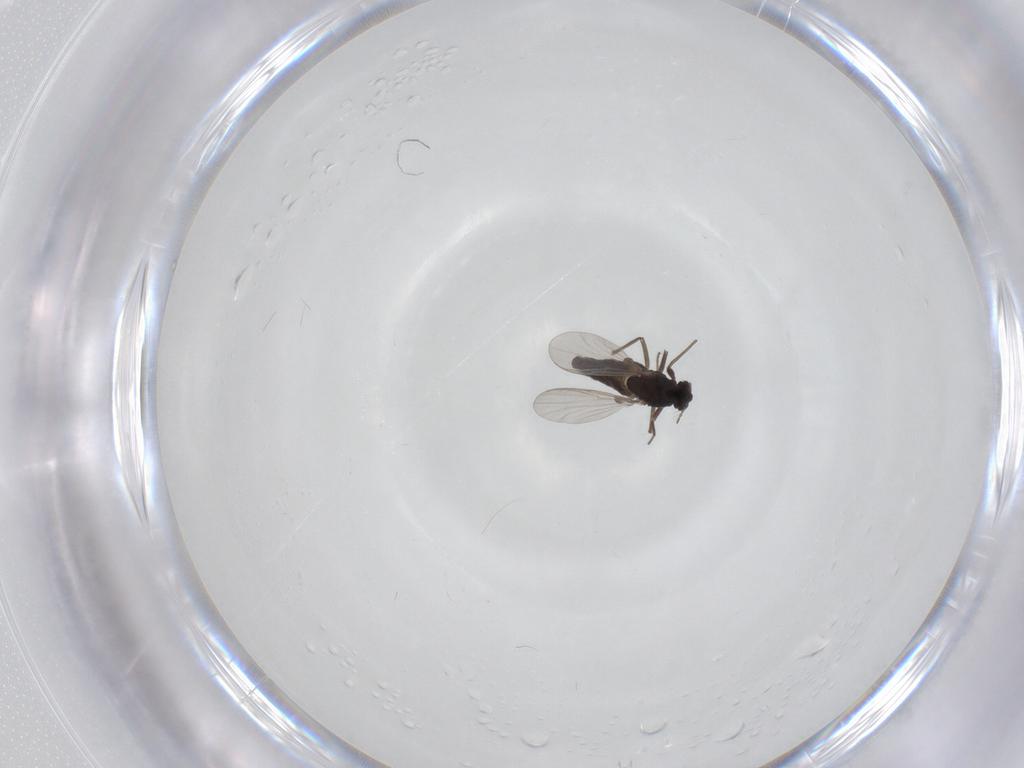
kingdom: Animalia
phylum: Arthropoda
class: Insecta
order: Diptera
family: Chironomidae
